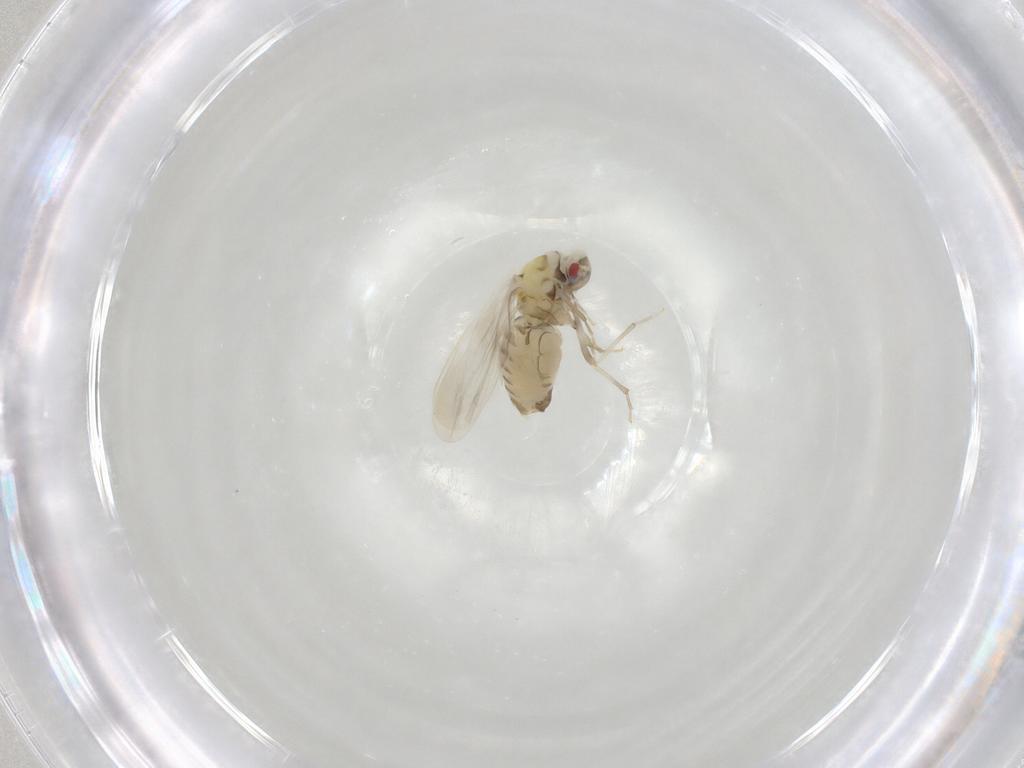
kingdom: Animalia
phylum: Arthropoda
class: Insecta
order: Hemiptera
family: Aleyrodidae
